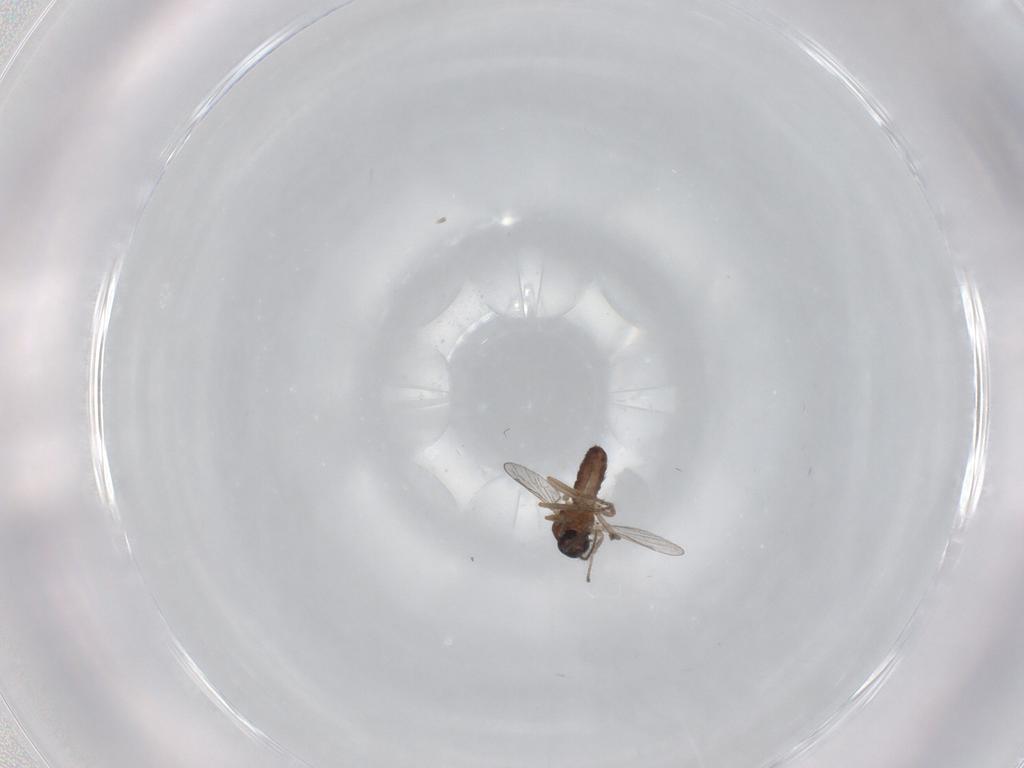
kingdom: Animalia
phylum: Arthropoda
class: Insecta
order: Diptera
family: Ceratopogonidae
